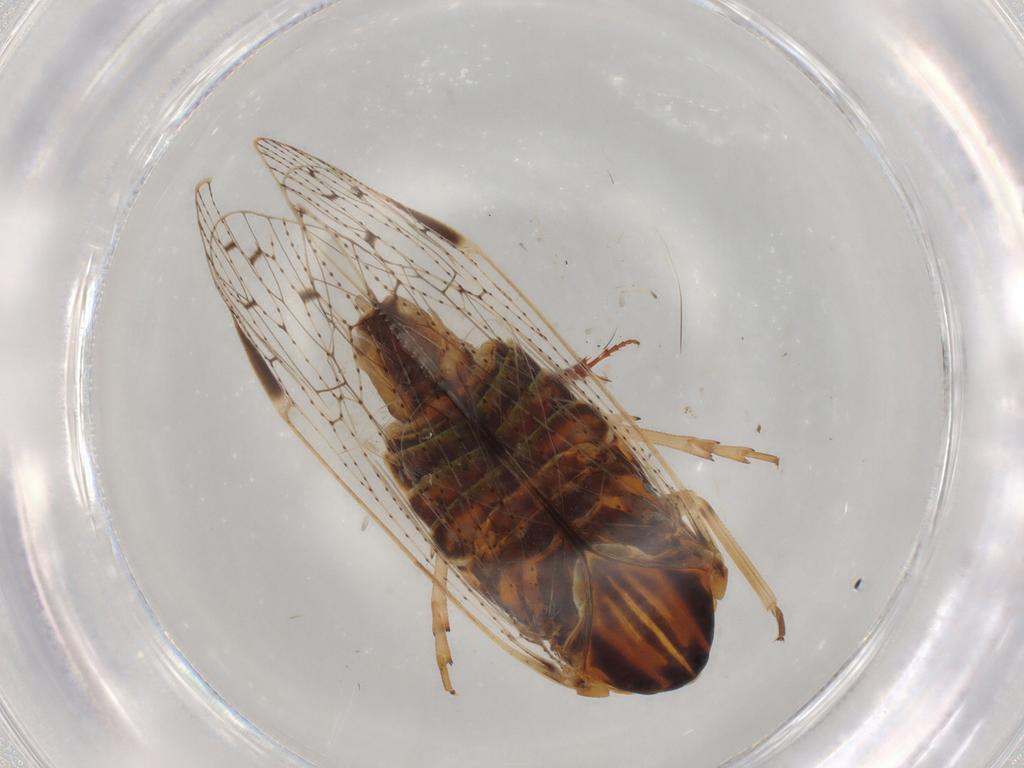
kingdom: Animalia
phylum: Arthropoda
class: Insecta
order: Hemiptera
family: Cixiidae
